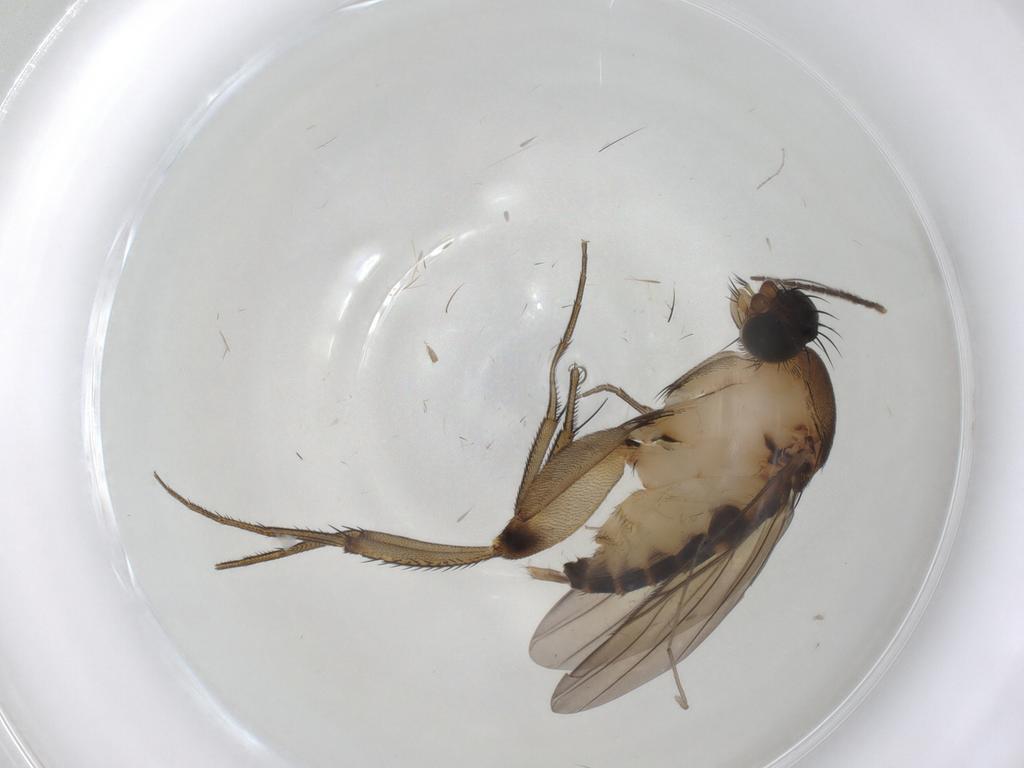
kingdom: Animalia
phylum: Arthropoda
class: Insecta
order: Diptera
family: Chironomidae
